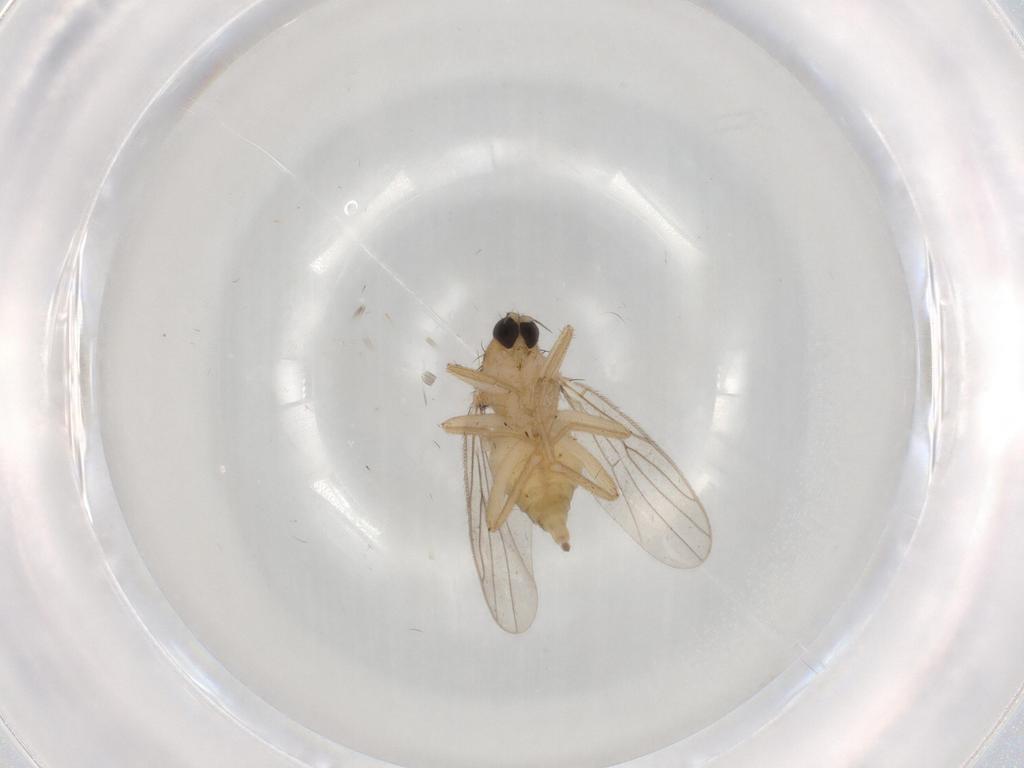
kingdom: Animalia
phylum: Arthropoda
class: Insecta
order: Diptera
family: Hybotidae
